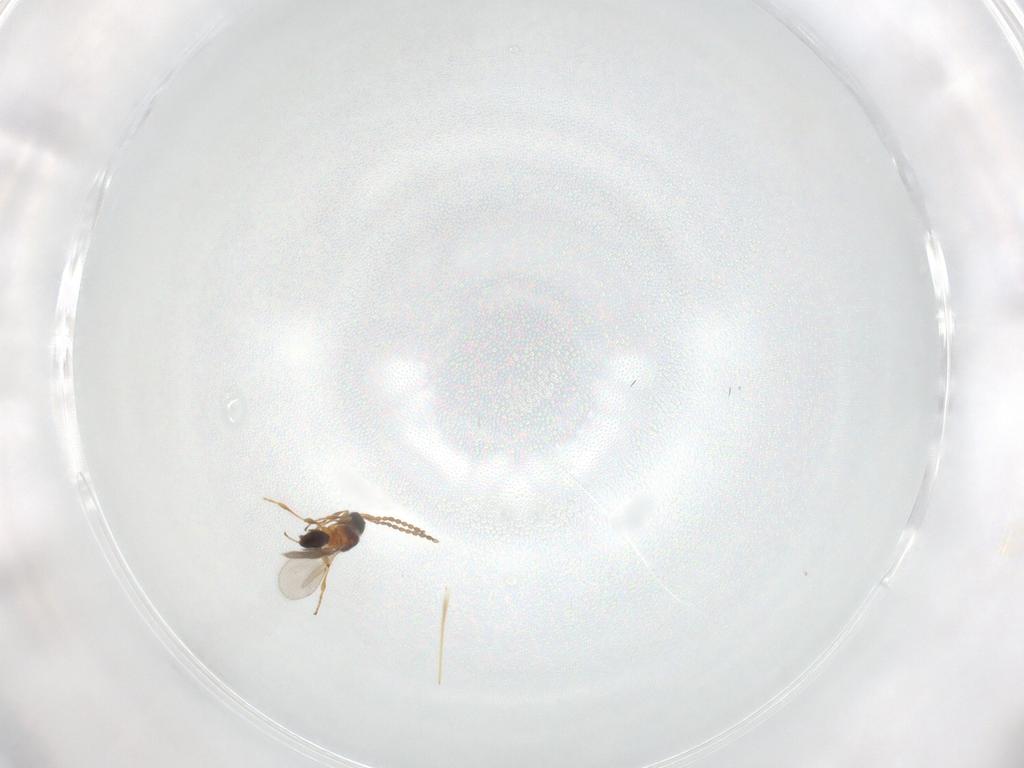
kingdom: Animalia
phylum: Arthropoda
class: Insecta
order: Hymenoptera
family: Diapriidae
